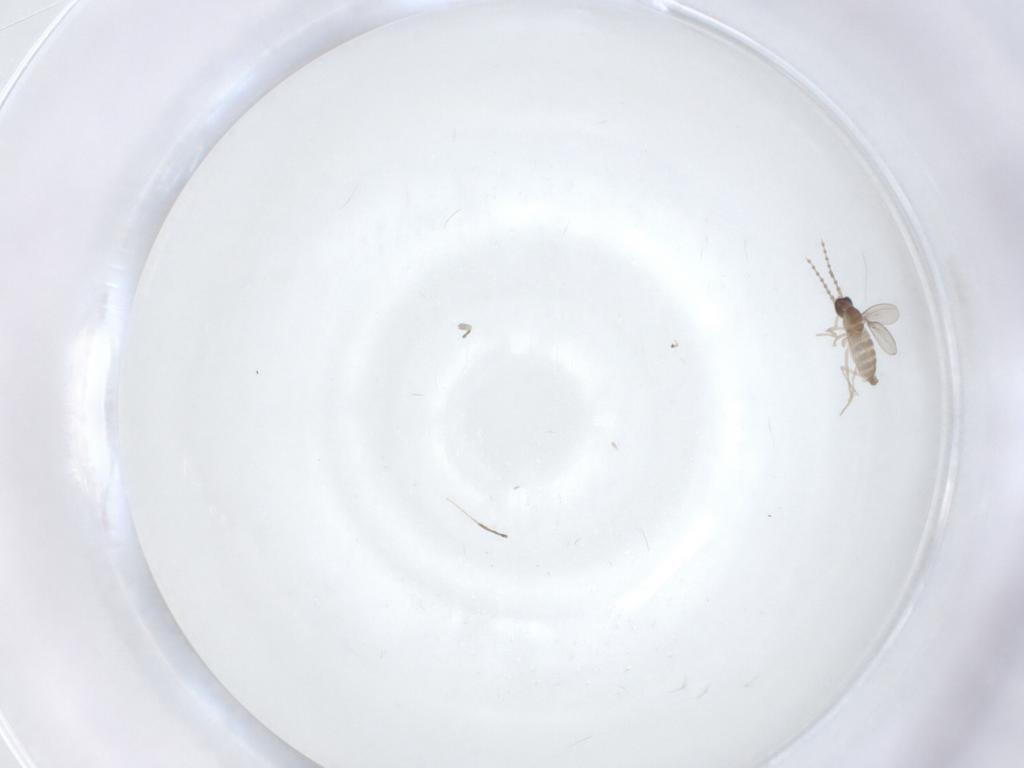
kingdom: Animalia
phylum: Arthropoda
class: Insecta
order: Diptera
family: Cecidomyiidae
